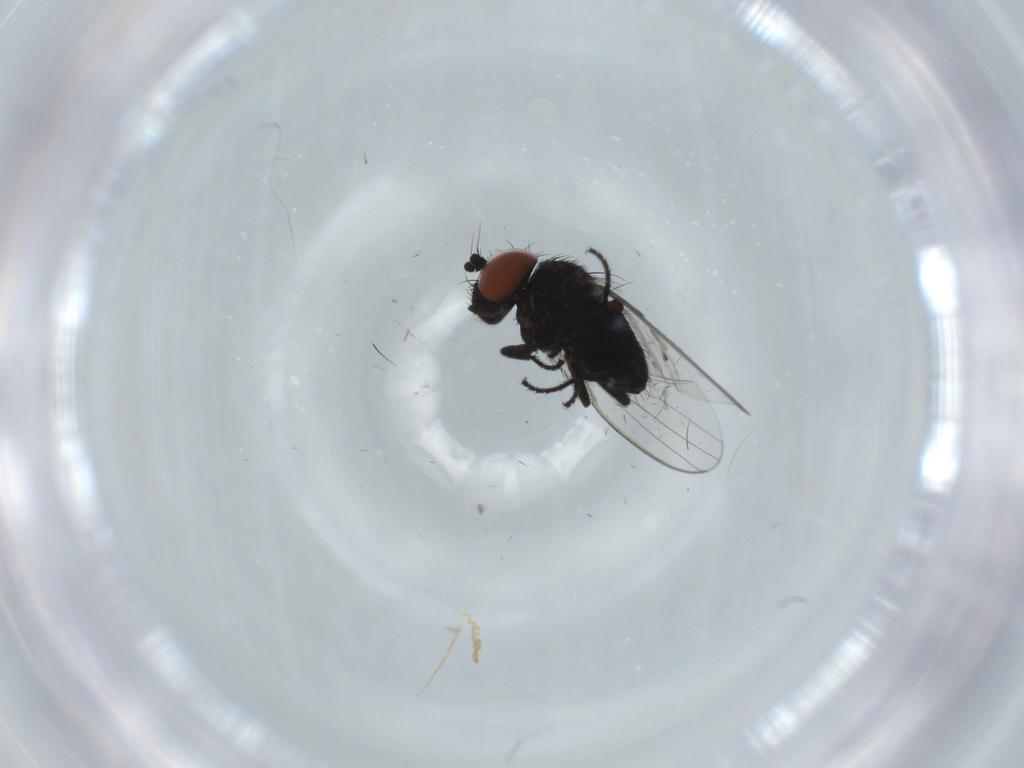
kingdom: Animalia
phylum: Arthropoda
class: Insecta
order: Diptera
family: Milichiidae
